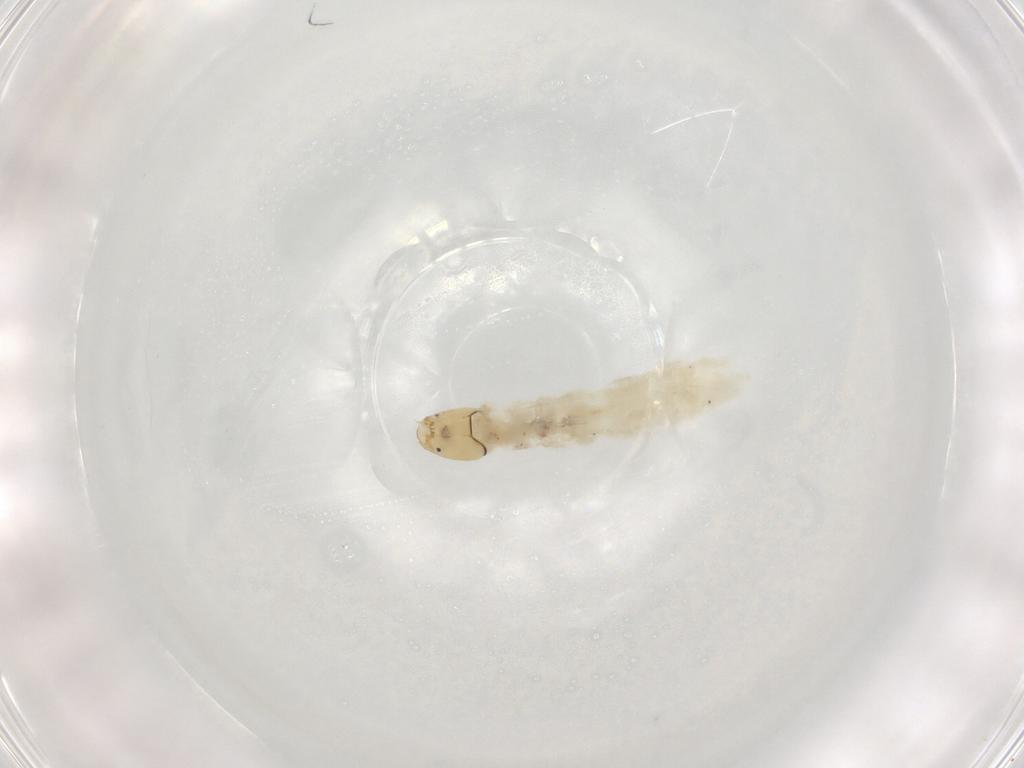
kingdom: Animalia
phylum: Arthropoda
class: Insecta
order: Diptera
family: Chironomidae
